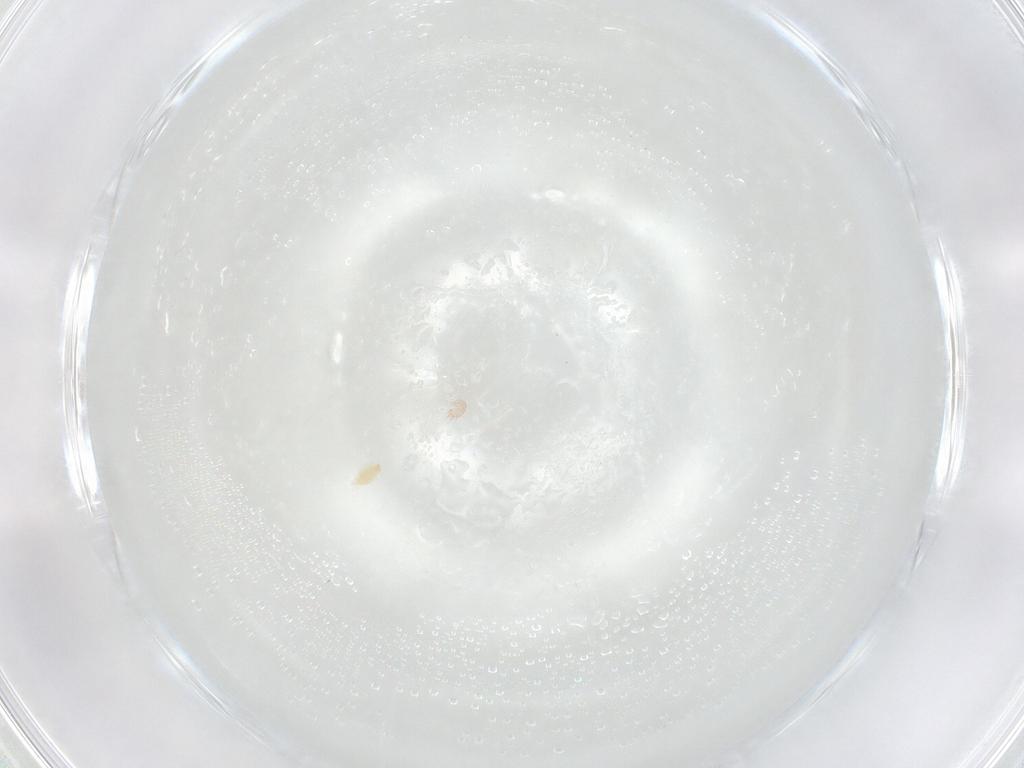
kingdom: Animalia
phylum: Arthropoda
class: Arachnida
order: Trombidiformes
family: Eupodidae
